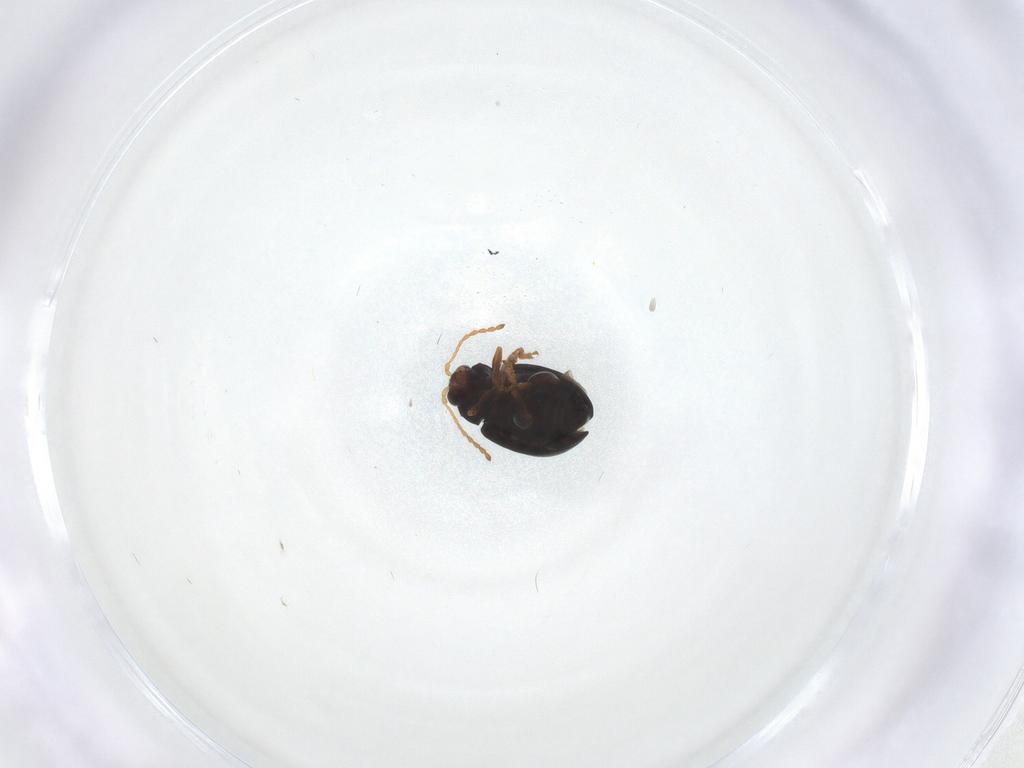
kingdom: Animalia
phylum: Arthropoda
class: Insecta
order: Coleoptera
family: Chrysomelidae
